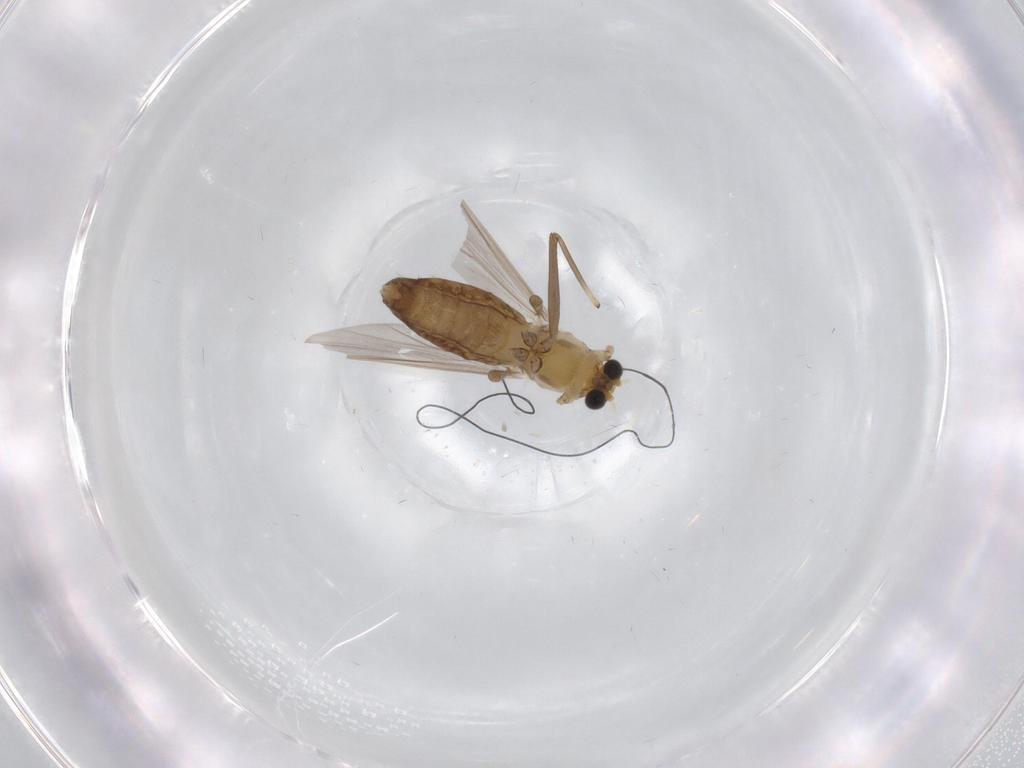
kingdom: Animalia
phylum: Arthropoda
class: Insecta
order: Diptera
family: Chironomidae
